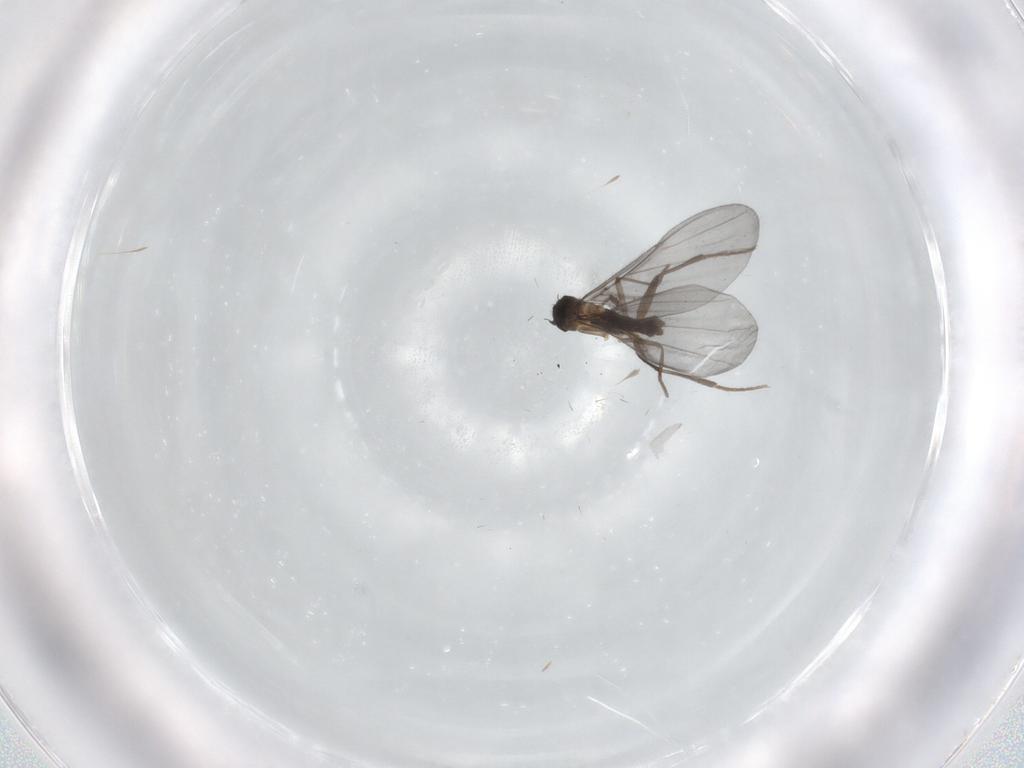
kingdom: Animalia
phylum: Arthropoda
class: Insecta
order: Diptera
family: Phoridae
